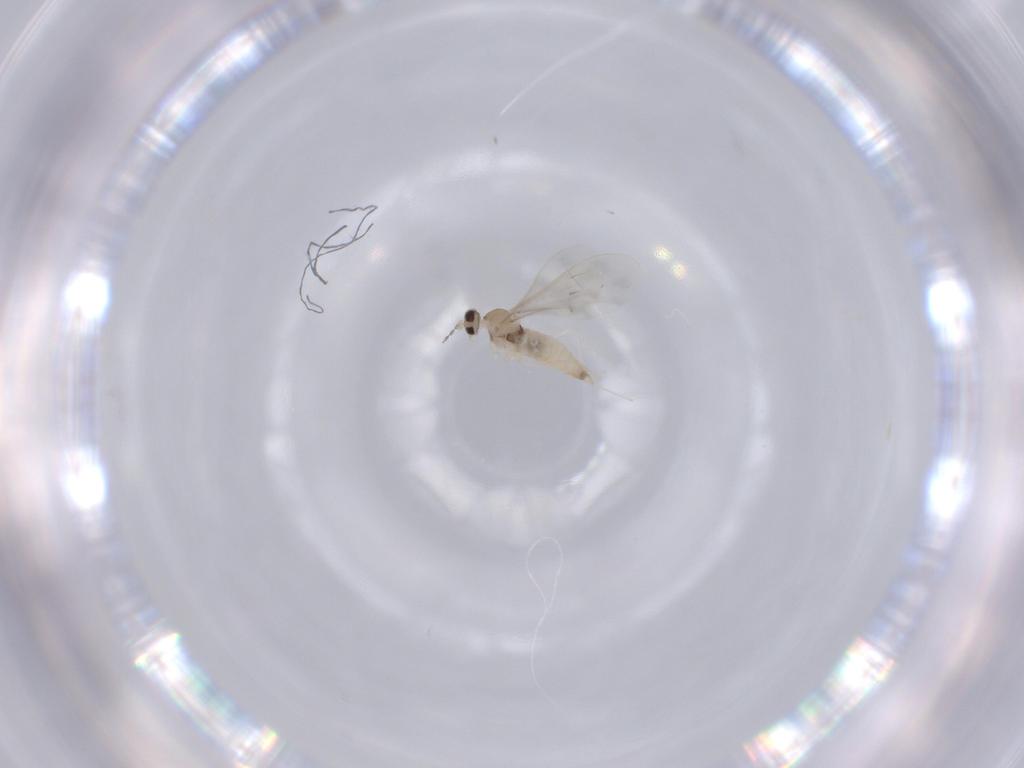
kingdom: Animalia
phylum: Arthropoda
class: Insecta
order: Diptera
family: Cecidomyiidae
